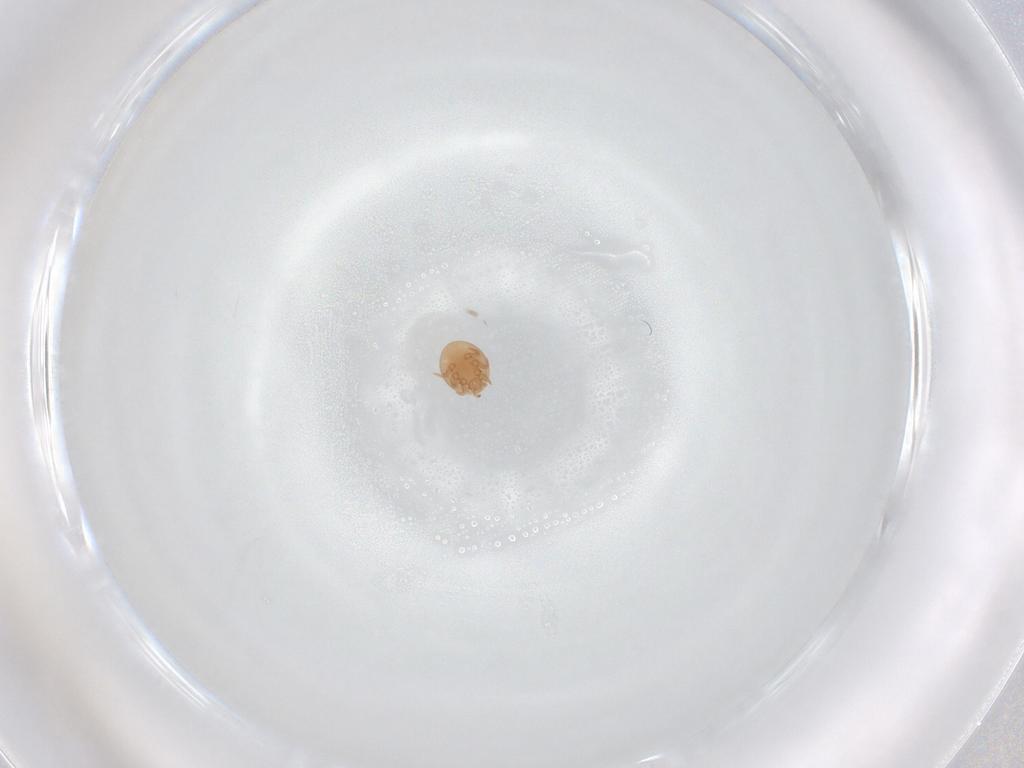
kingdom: Animalia
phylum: Arthropoda
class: Arachnida
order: Mesostigmata
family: Trematuridae
